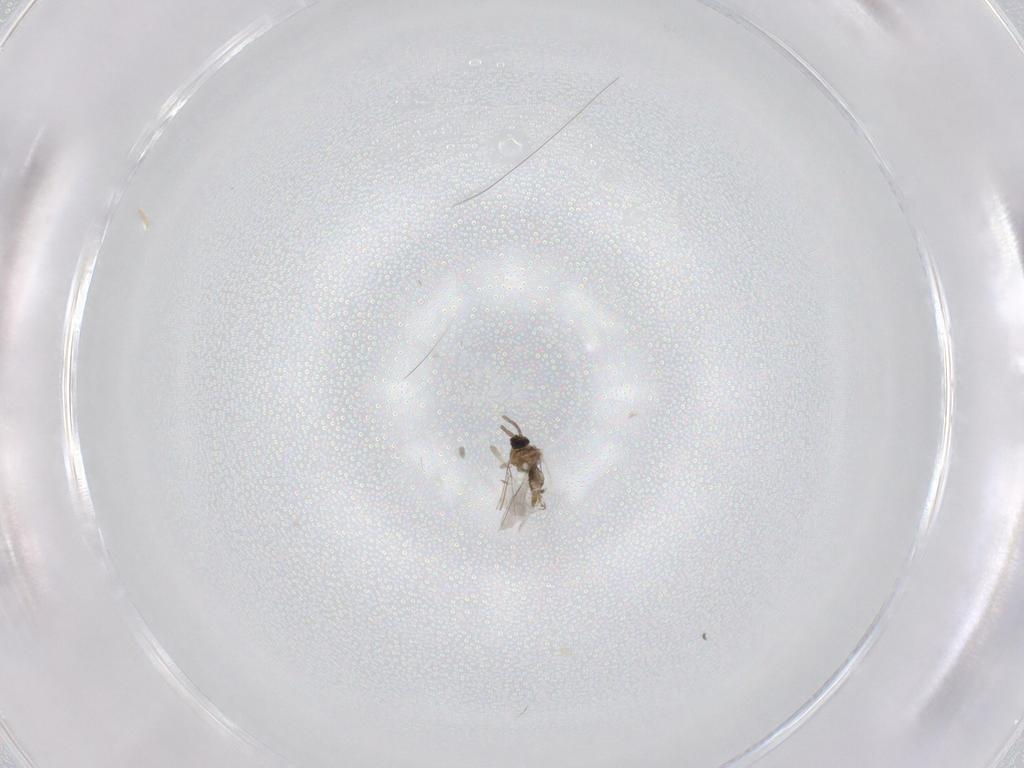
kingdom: Animalia
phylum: Arthropoda
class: Insecta
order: Diptera
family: Cecidomyiidae
